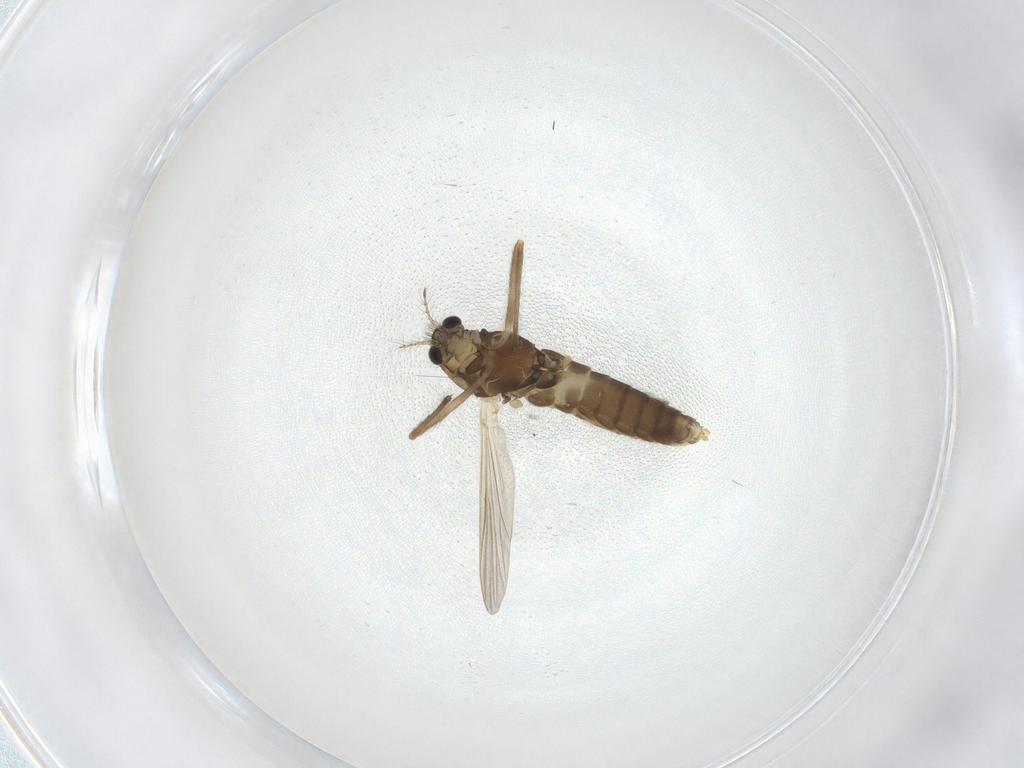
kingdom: Animalia
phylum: Arthropoda
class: Insecta
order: Diptera
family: Chironomidae
